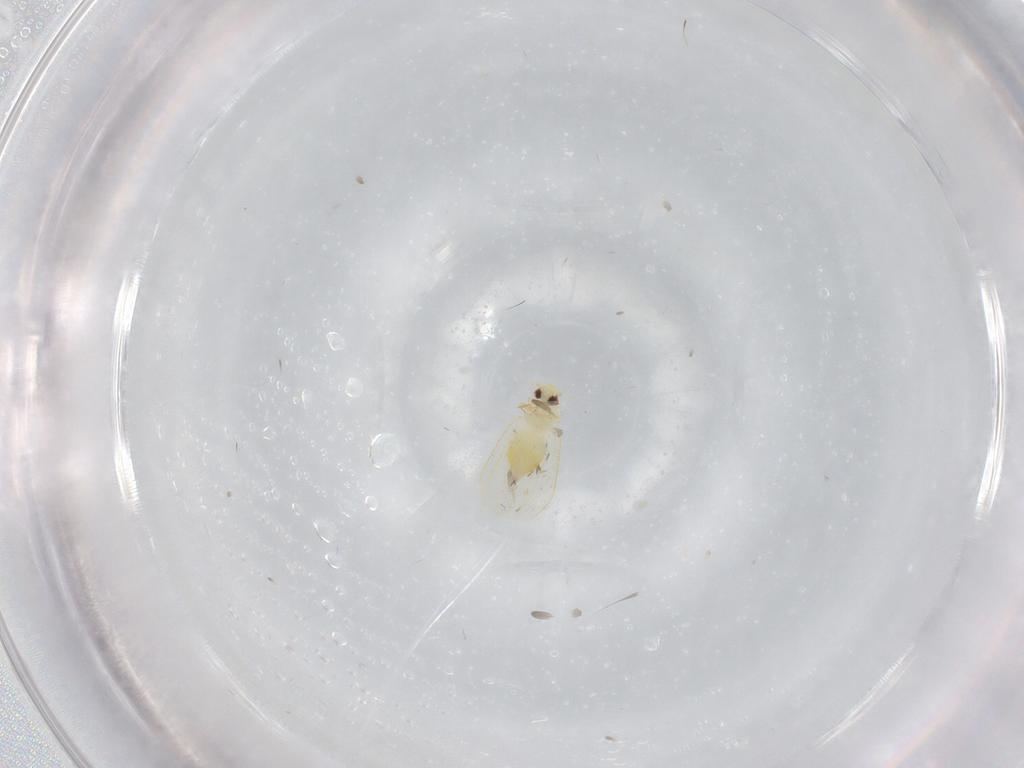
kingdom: Animalia
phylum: Arthropoda
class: Insecta
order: Hemiptera
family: Aleyrodidae
